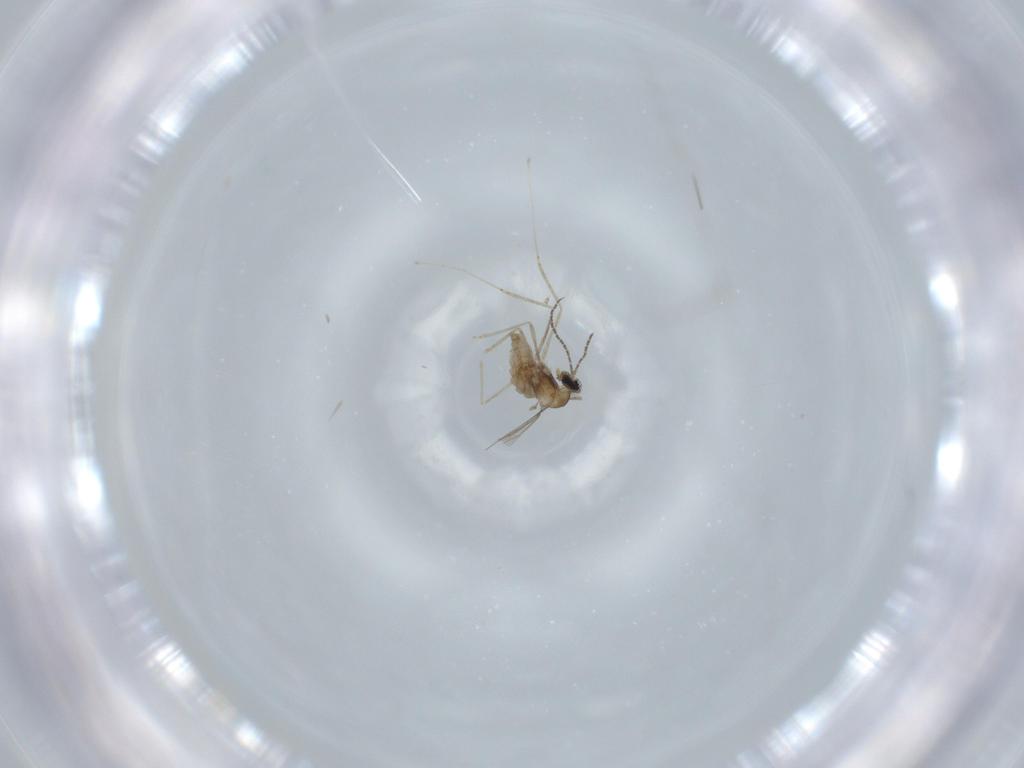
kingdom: Animalia
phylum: Arthropoda
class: Insecta
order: Diptera
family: Cecidomyiidae
